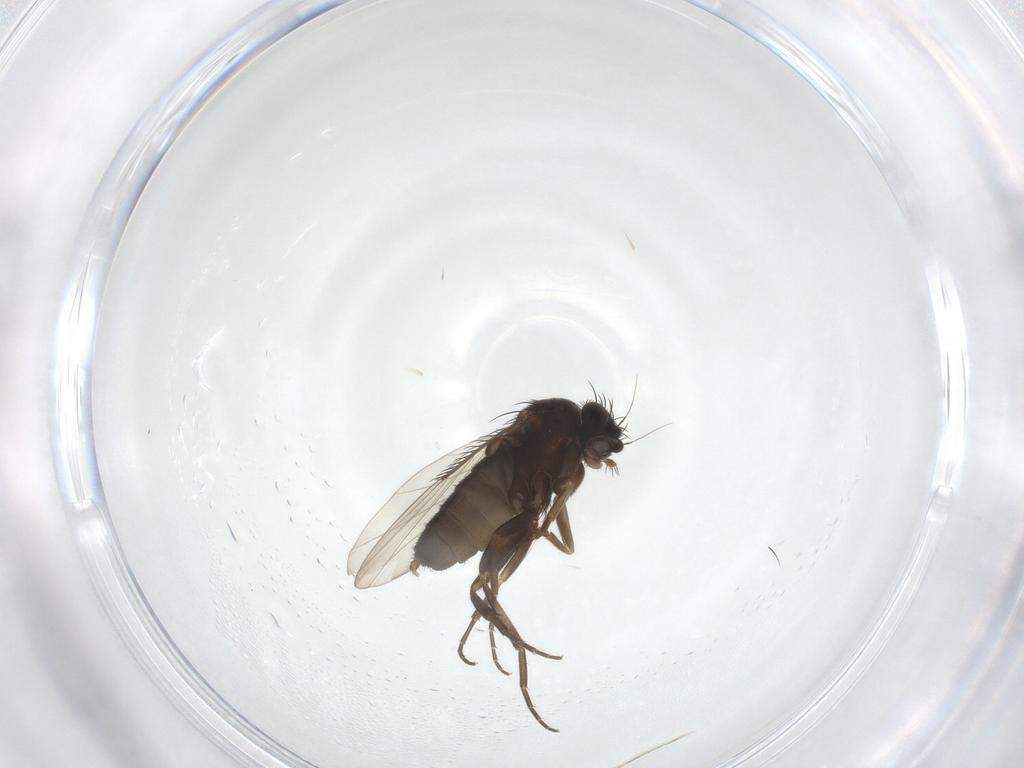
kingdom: Animalia
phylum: Arthropoda
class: Insecta
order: Diptera
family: Phoridae
